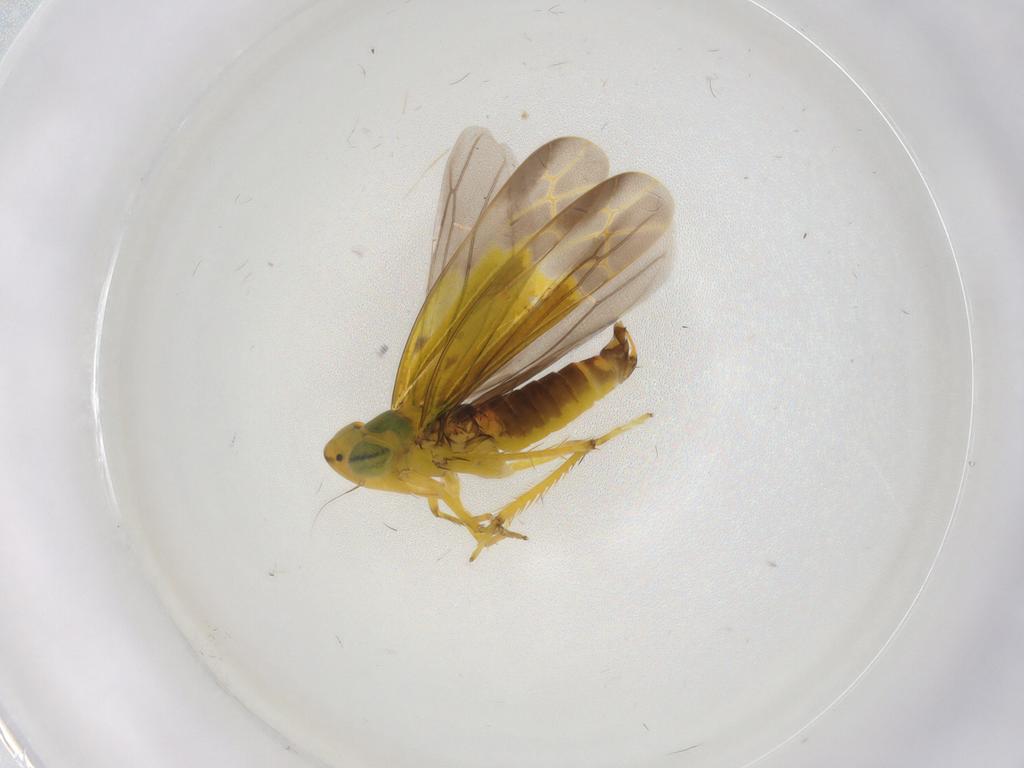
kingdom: Animalia
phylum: Arthropoda
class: Insecta
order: Hemiptera
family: Cicadellidae
